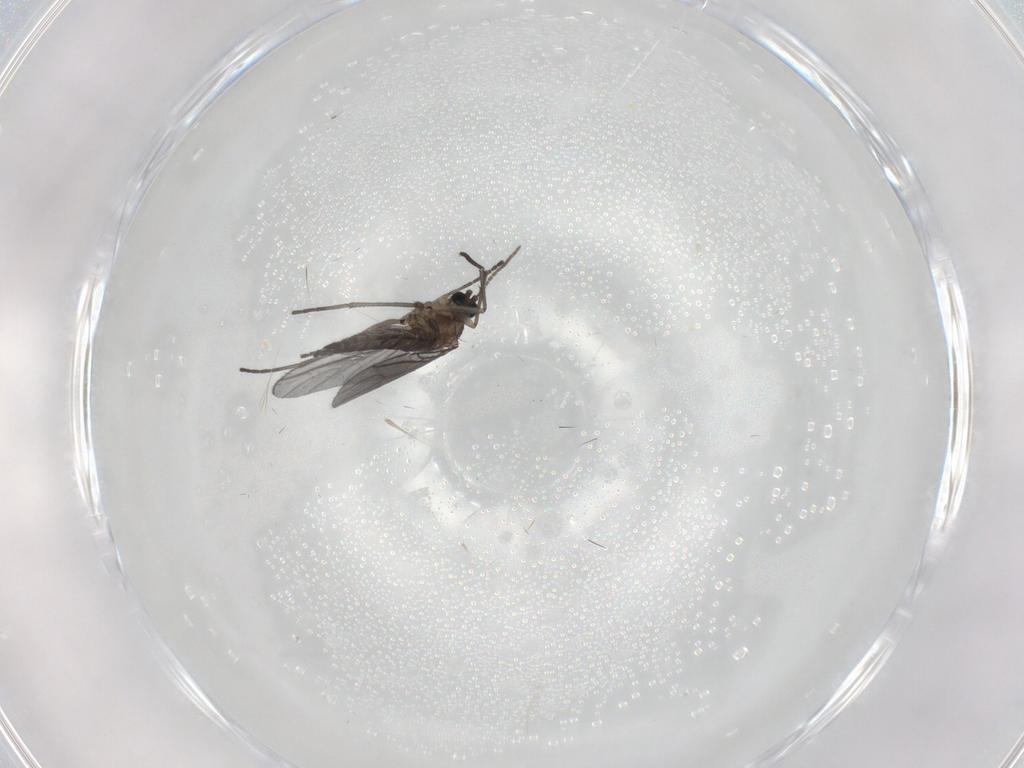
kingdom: Animalia
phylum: Arthropoda
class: Insecta
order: Diptera
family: Sciaridae
